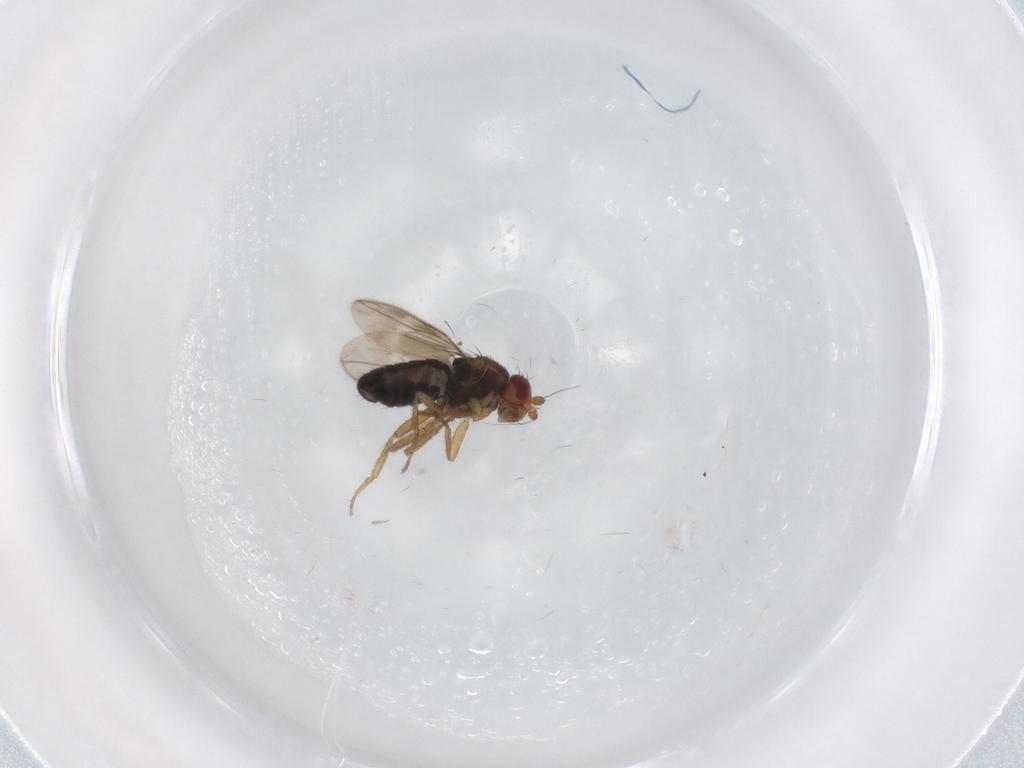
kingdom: Animalia
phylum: Arthropoda
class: Insecta
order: Diptera
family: Sphaeroceridae
